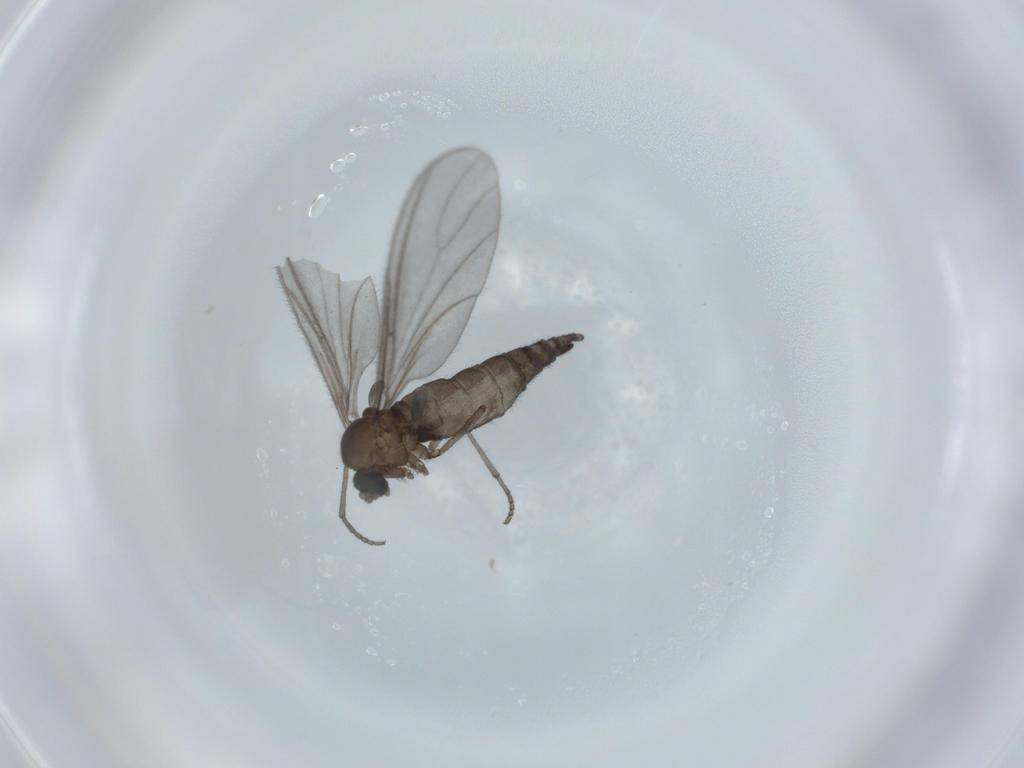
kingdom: Animalia
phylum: Arthropoda
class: Insecta
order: Diptera
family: Sciaridae
